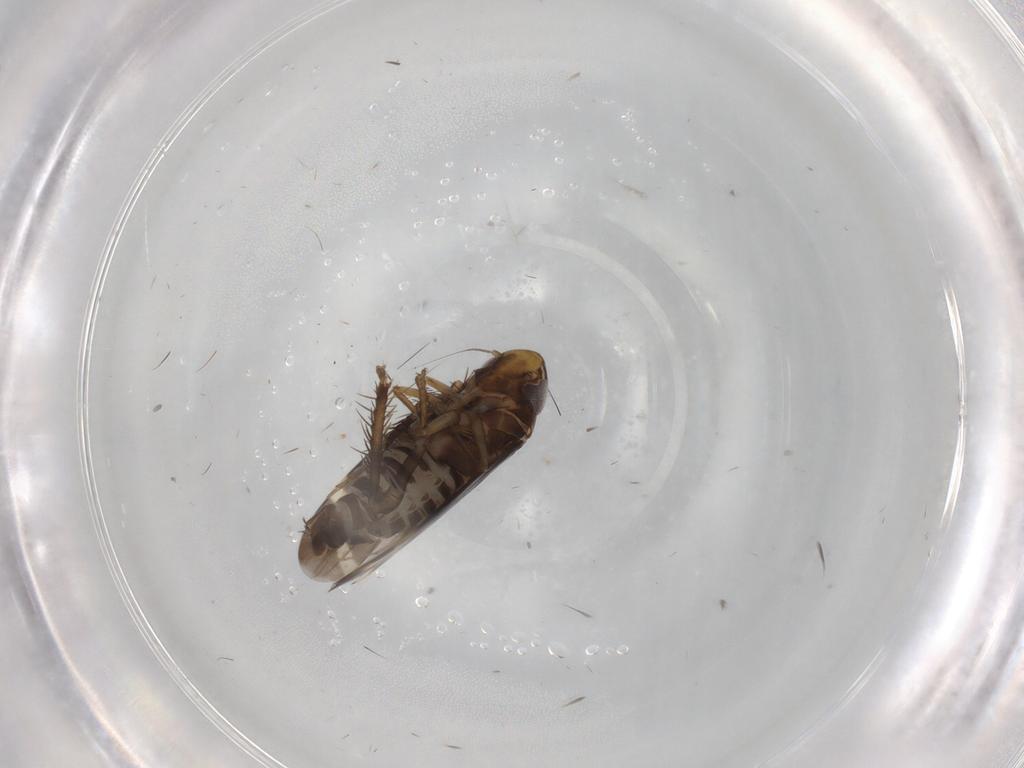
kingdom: Animalia
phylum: Arthropoda
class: Insecta
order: Hemiptera
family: Cicadellidae
